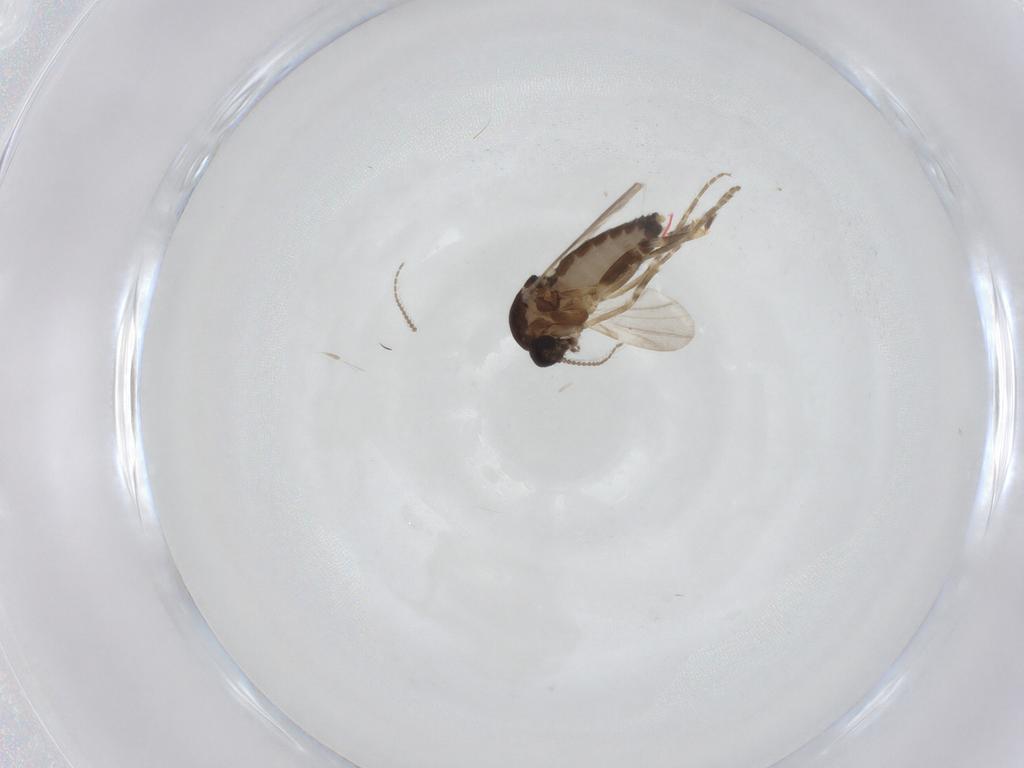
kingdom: Animalia
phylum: Arthropoda
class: Insecta
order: Diptera
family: Ceratopogonidae
